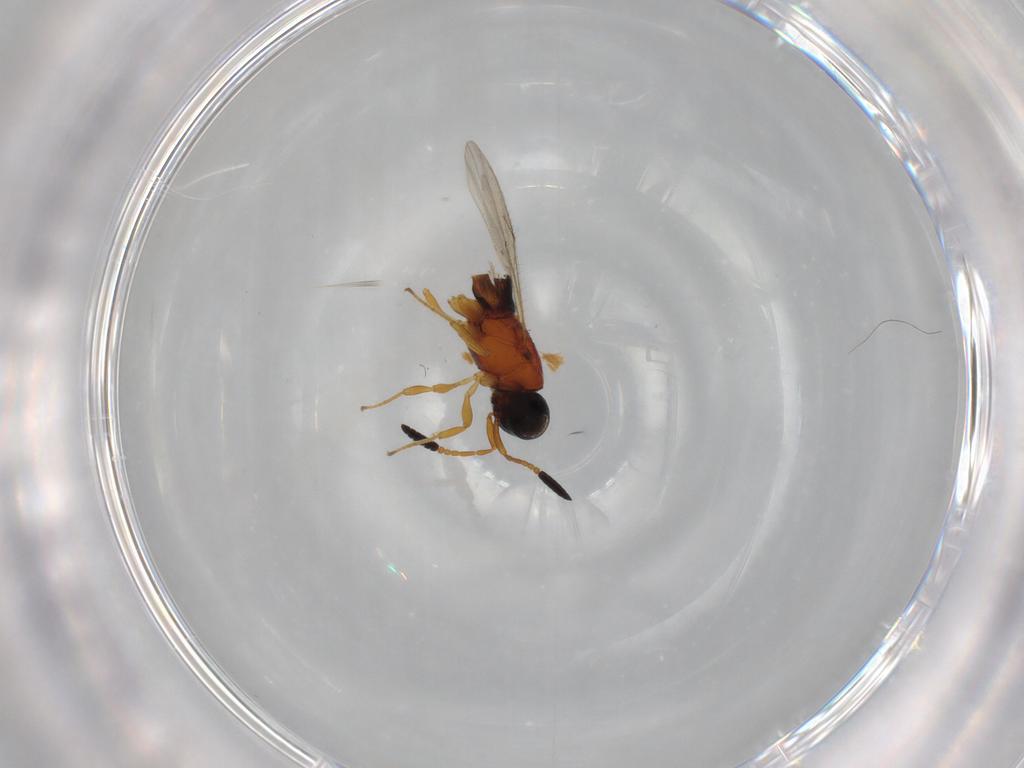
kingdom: Animalia
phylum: Arthropoda
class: Insecta
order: Hymenoptera
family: Scelionidae
